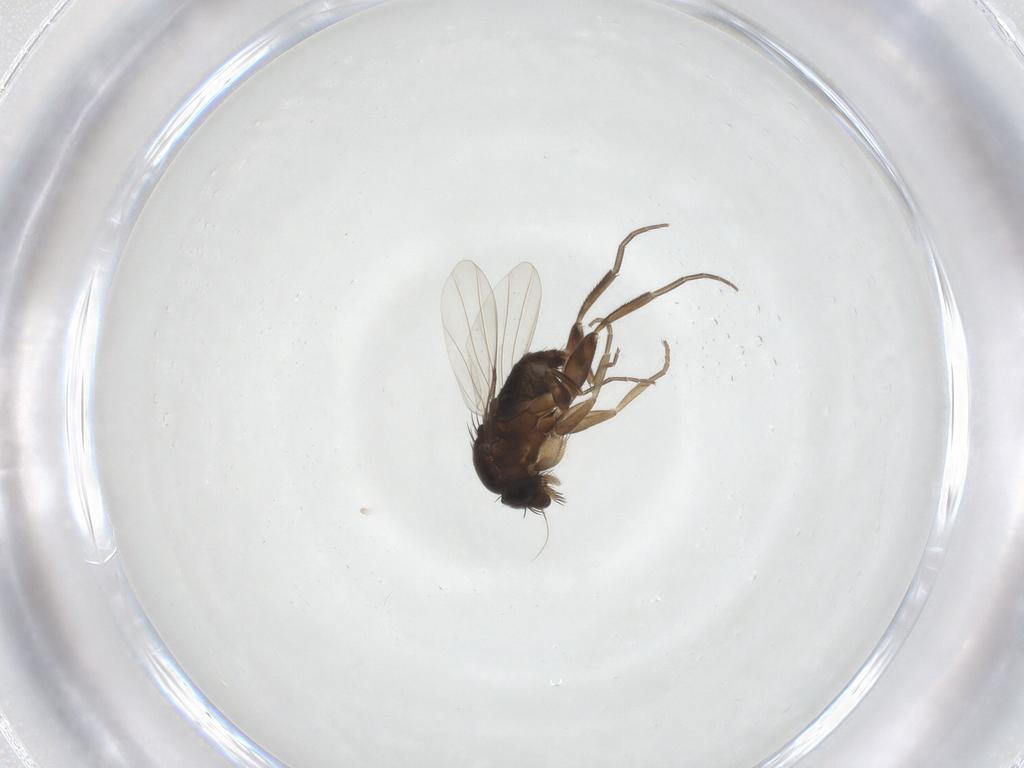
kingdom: Animalia
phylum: Arthropoda
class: Insecta
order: Diptera
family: Phoridae
